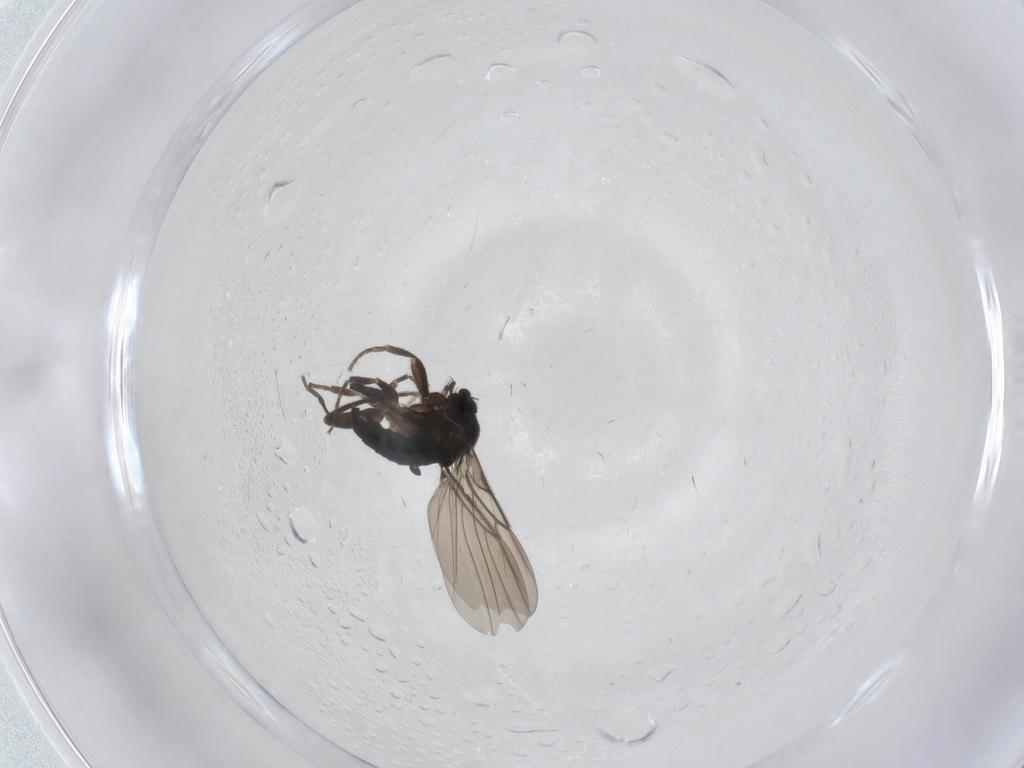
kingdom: Animalia
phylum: Arthropoda
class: Insecta
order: Diptera
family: Phoridae
